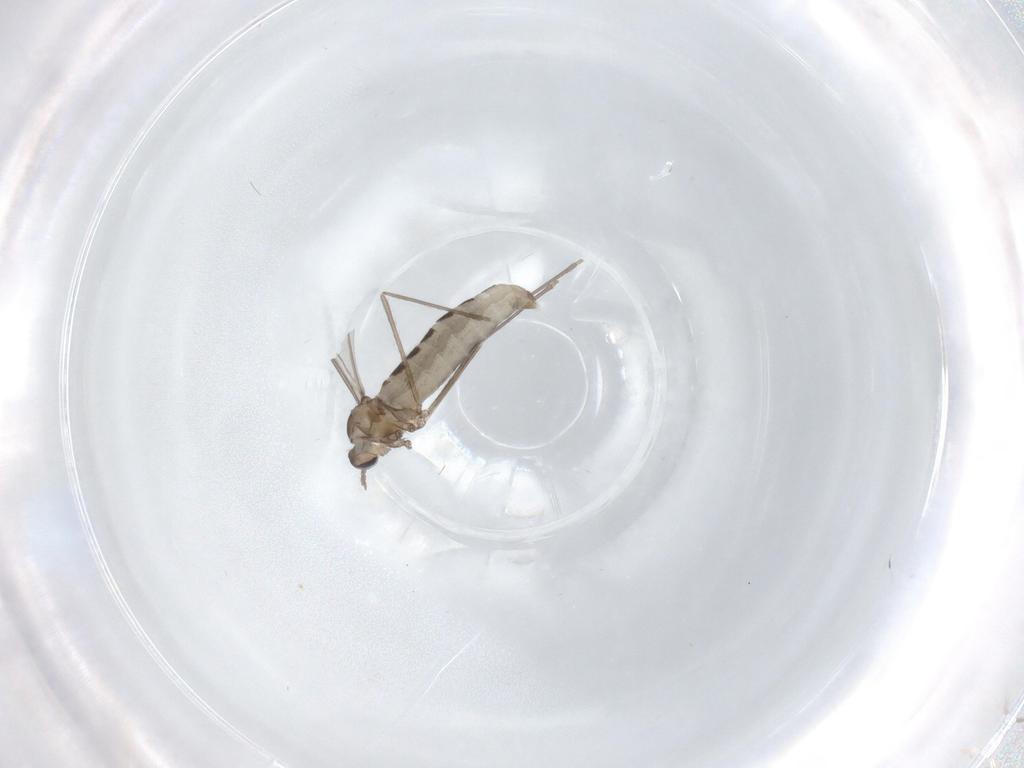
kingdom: Animalia
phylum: Arthropoda
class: Insecta
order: Diptera
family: Cecidomyiidae
